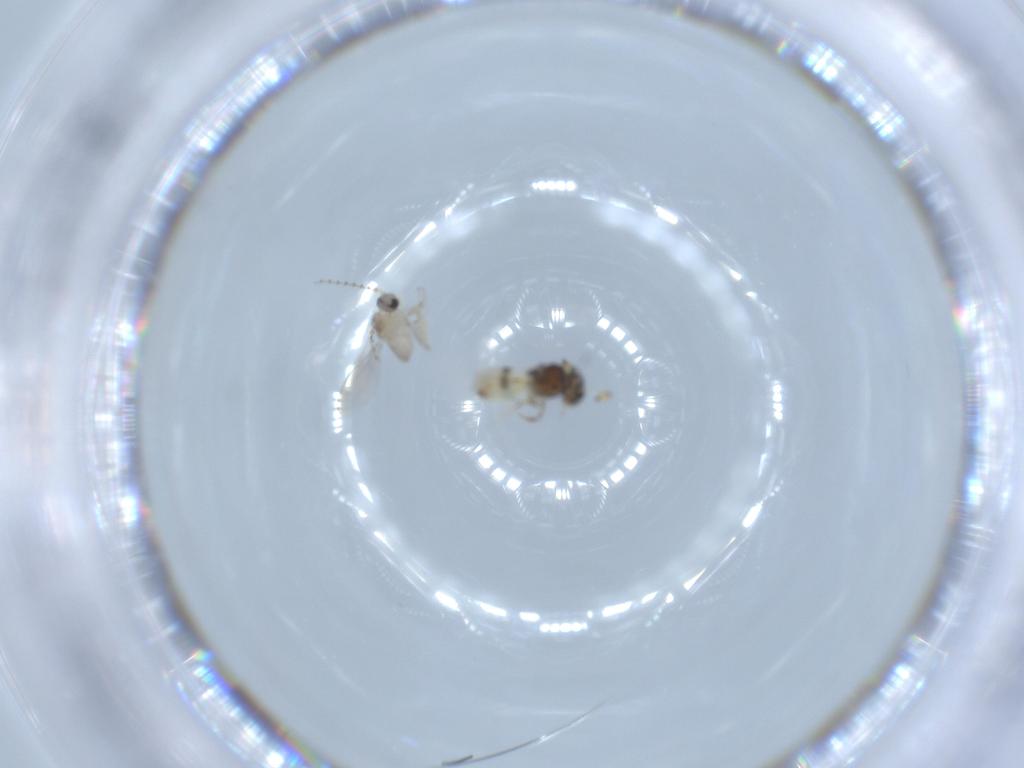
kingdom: Animalia
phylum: Arthropoda
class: Insecta
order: Diptera
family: Cecidomyiidae
